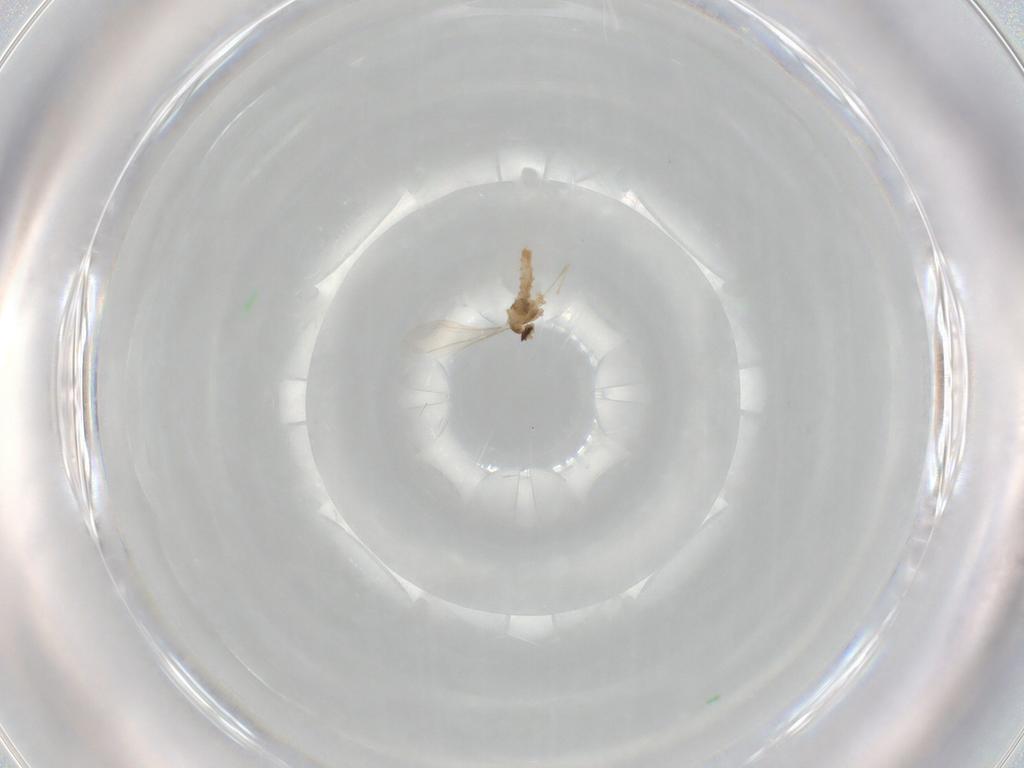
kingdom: Animalia
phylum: Arthropoda
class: Insecta
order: Diptera
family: Cecidomyiidae
